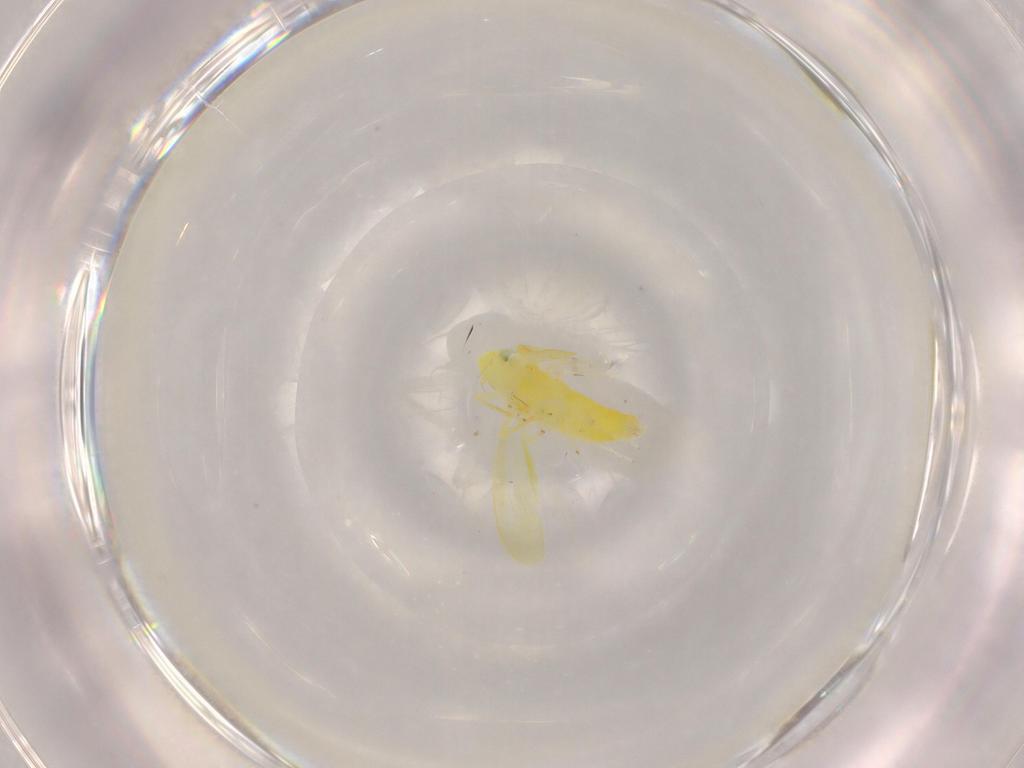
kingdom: Animalia
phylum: Arthropoda
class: Insecta
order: Hemiptera
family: Cicadellidae
